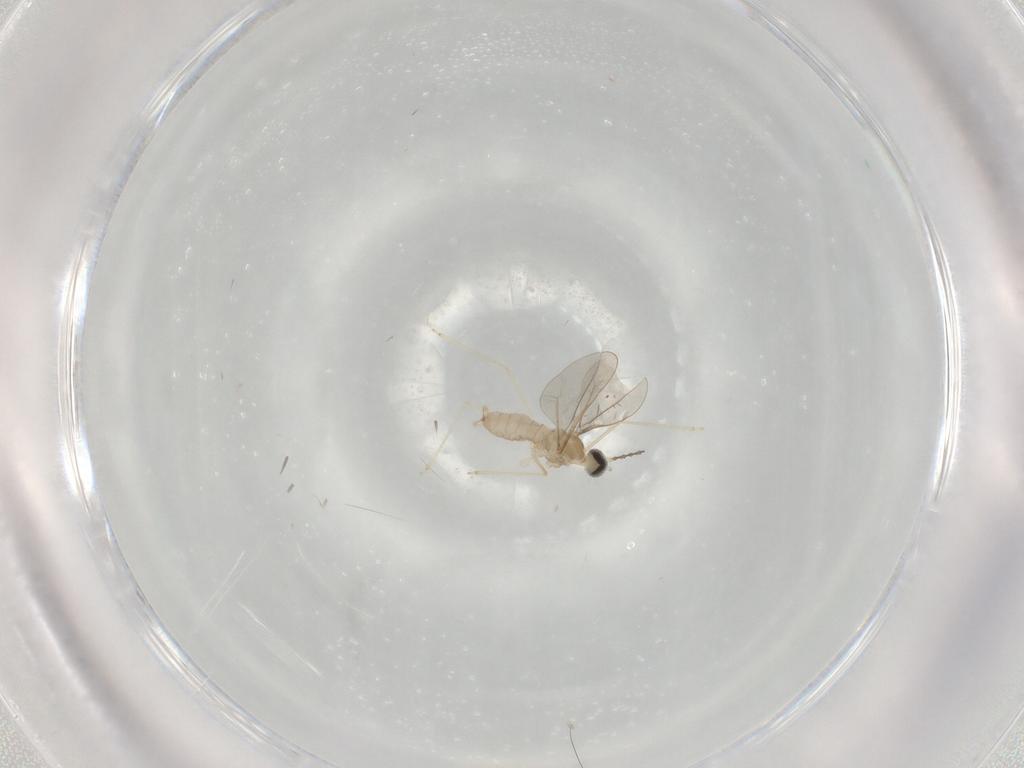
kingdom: Animalia
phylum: Arthropoda
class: Insecta
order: Diptera
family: Cecidomyiidae
